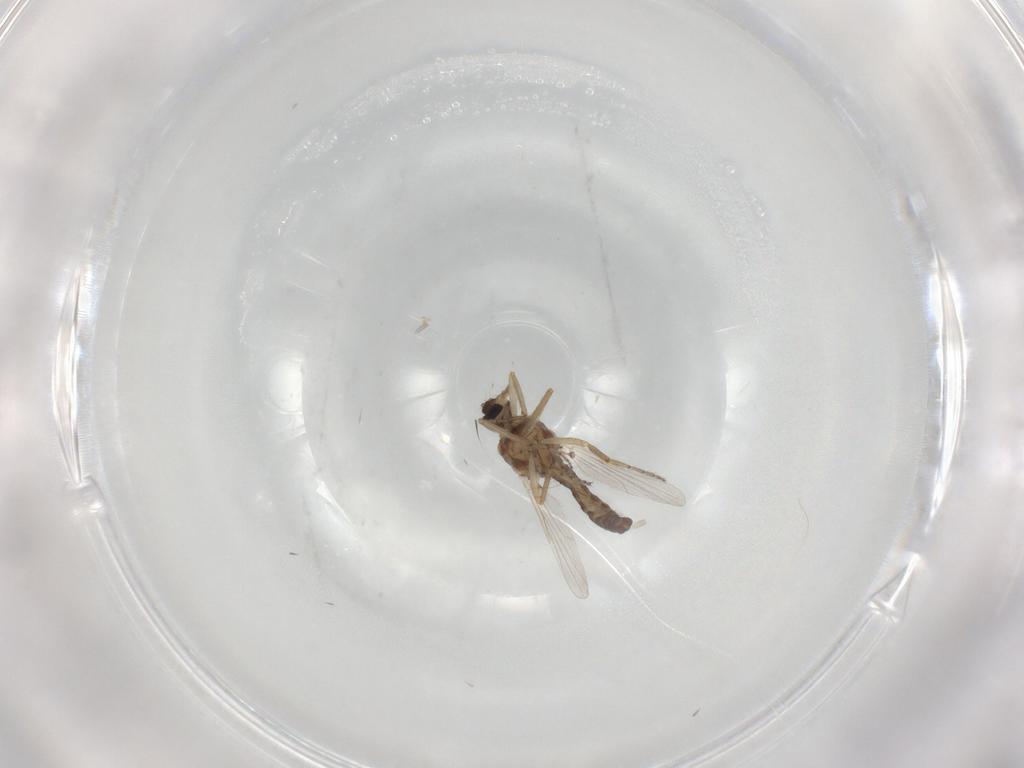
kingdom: Animalia
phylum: Arthropoda
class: Insecta
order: Diptera
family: Ceratopogonidae
